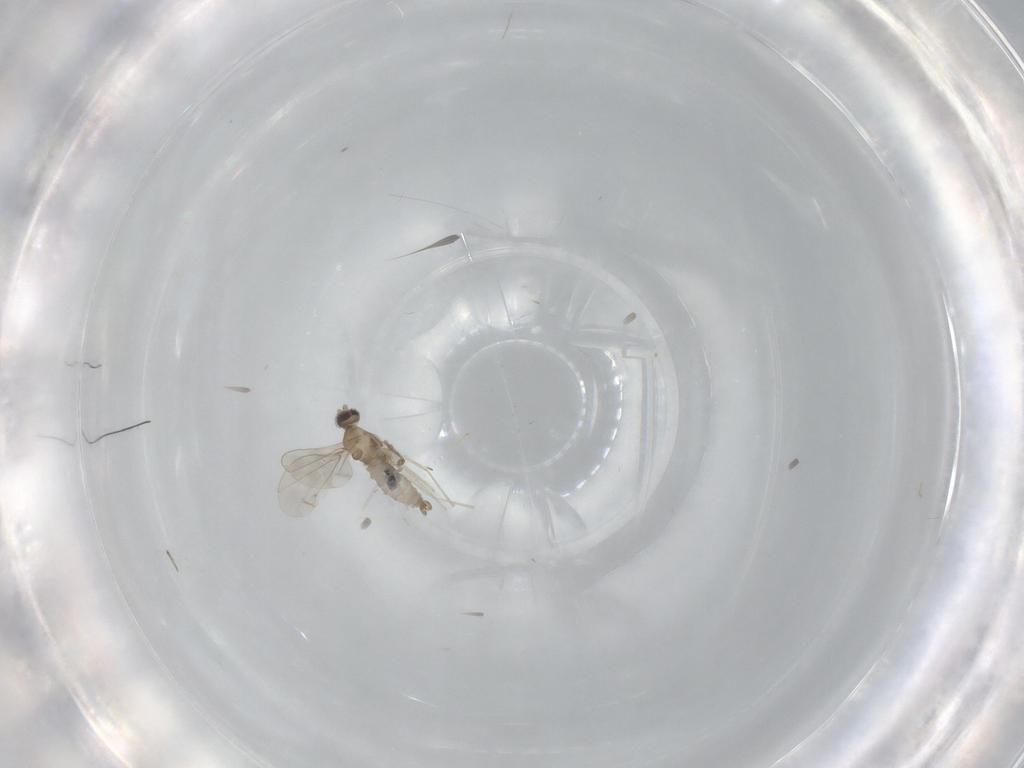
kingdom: Animalia
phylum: Arthropoda
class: Insecta
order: Diptera
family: Cecidomyiidae
